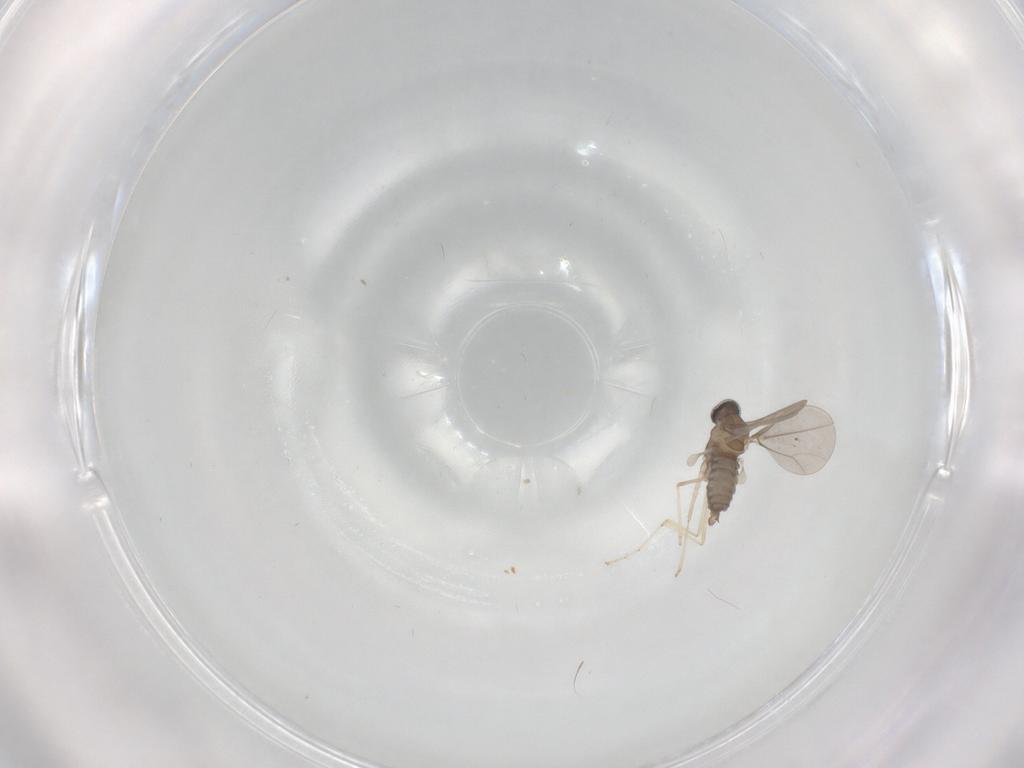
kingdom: Animalia
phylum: Arthropoda
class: Insecta
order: Diptera
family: Cecidomyiidae
